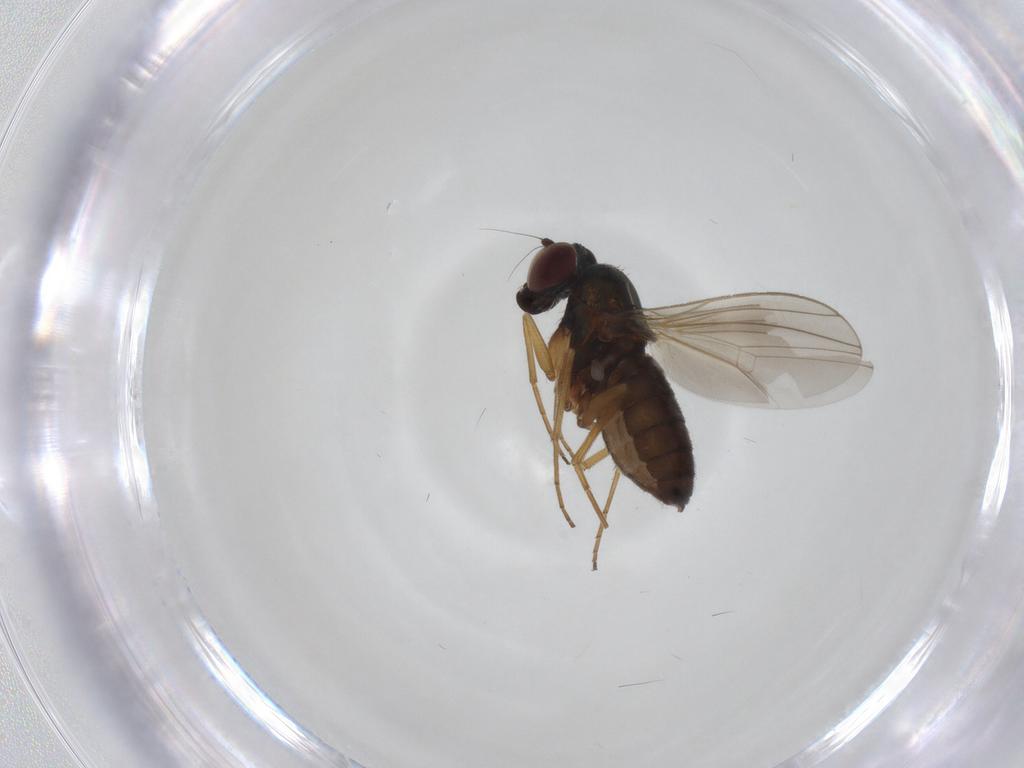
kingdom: Animalia
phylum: Arthropoda
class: Insecta
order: Diptera
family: Dolichopodidae
